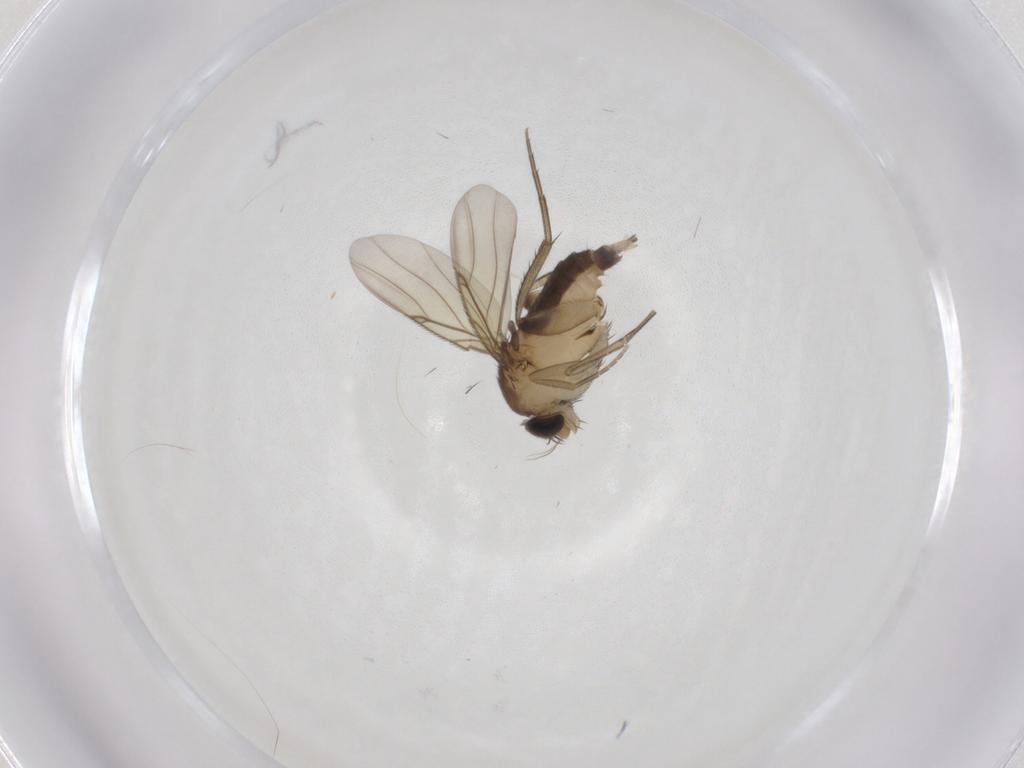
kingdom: Animalia
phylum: Arthropoda
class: Insecta
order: Diptera
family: Phoridae
